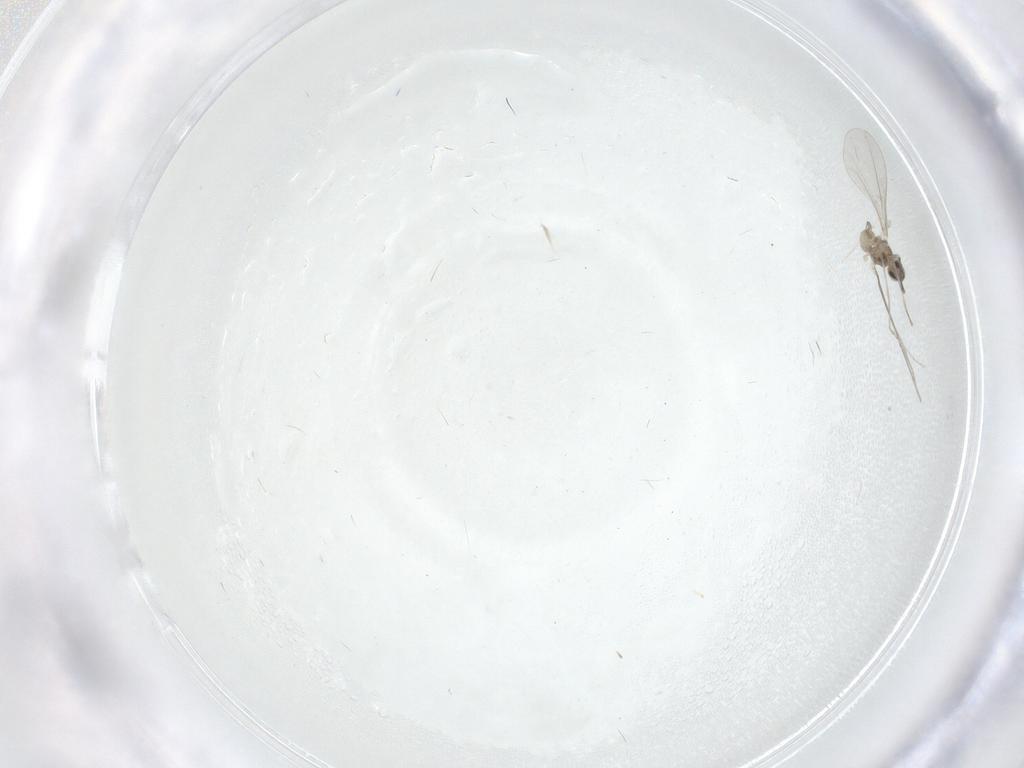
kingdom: Animalia
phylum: Arthropoda
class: Insecta
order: Diptera
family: Cecidomyiidae
